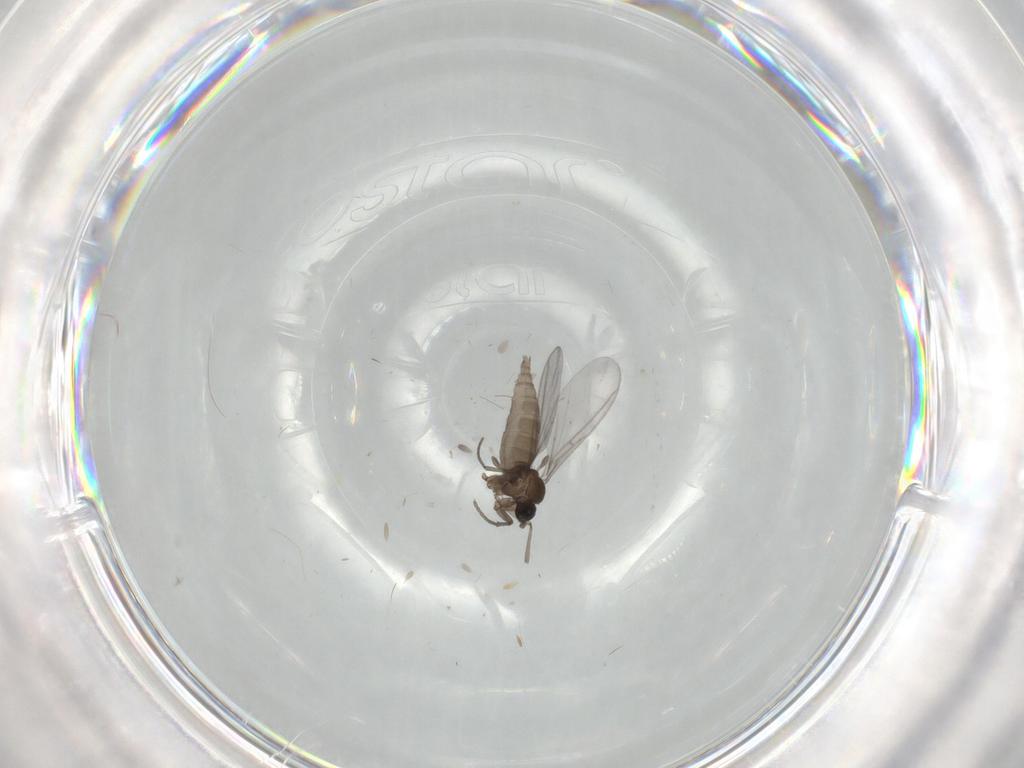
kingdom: Animalia
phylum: Arthropoda
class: Insecta
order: Diptera
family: Sciaridae
